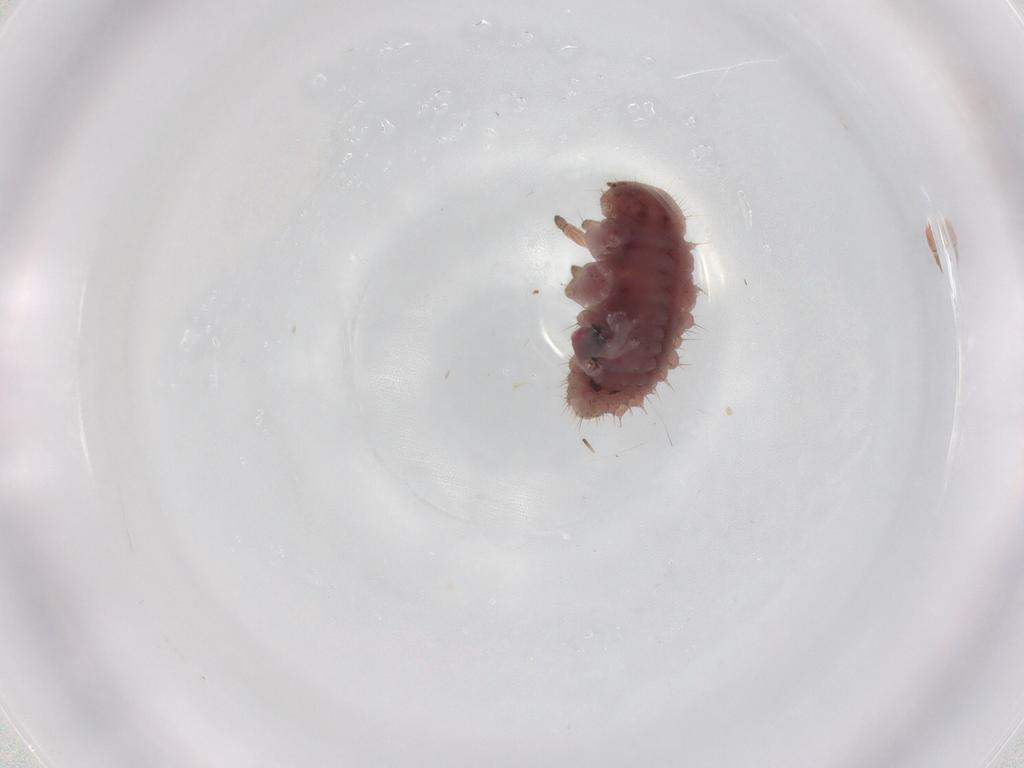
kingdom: Animalia
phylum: Arthropoda
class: Insecta
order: Coleoptera
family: Coccinellidae
